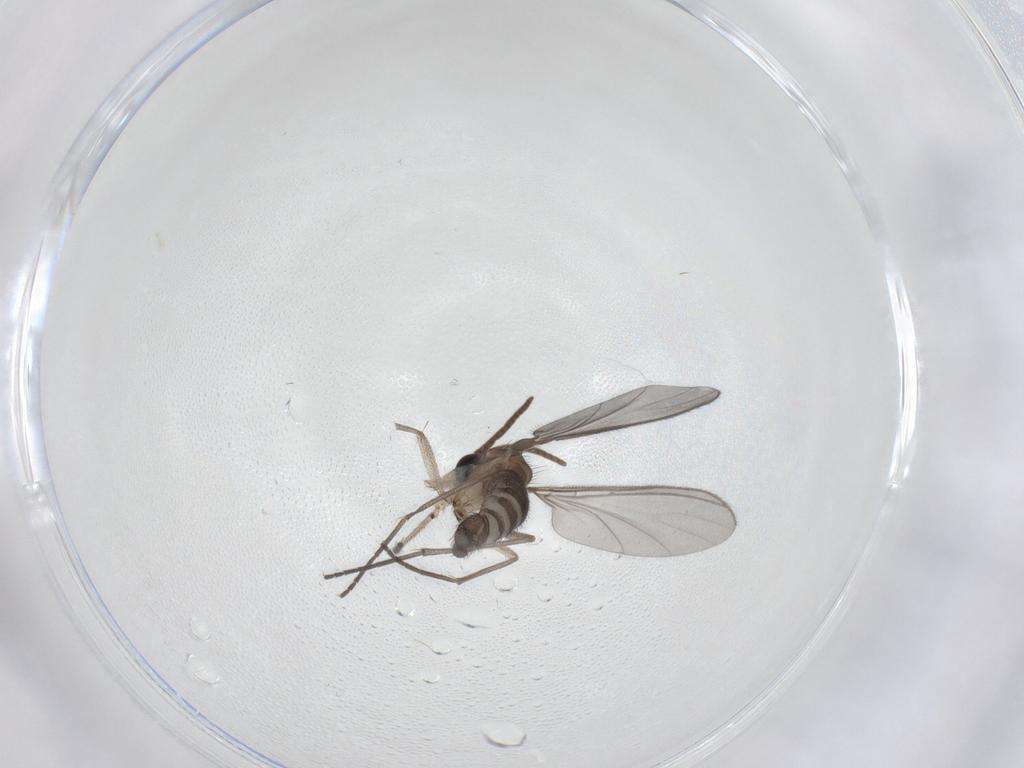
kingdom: Animalia
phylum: Arthropoda
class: Insecta
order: Diptera
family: Cecidomyiidae
